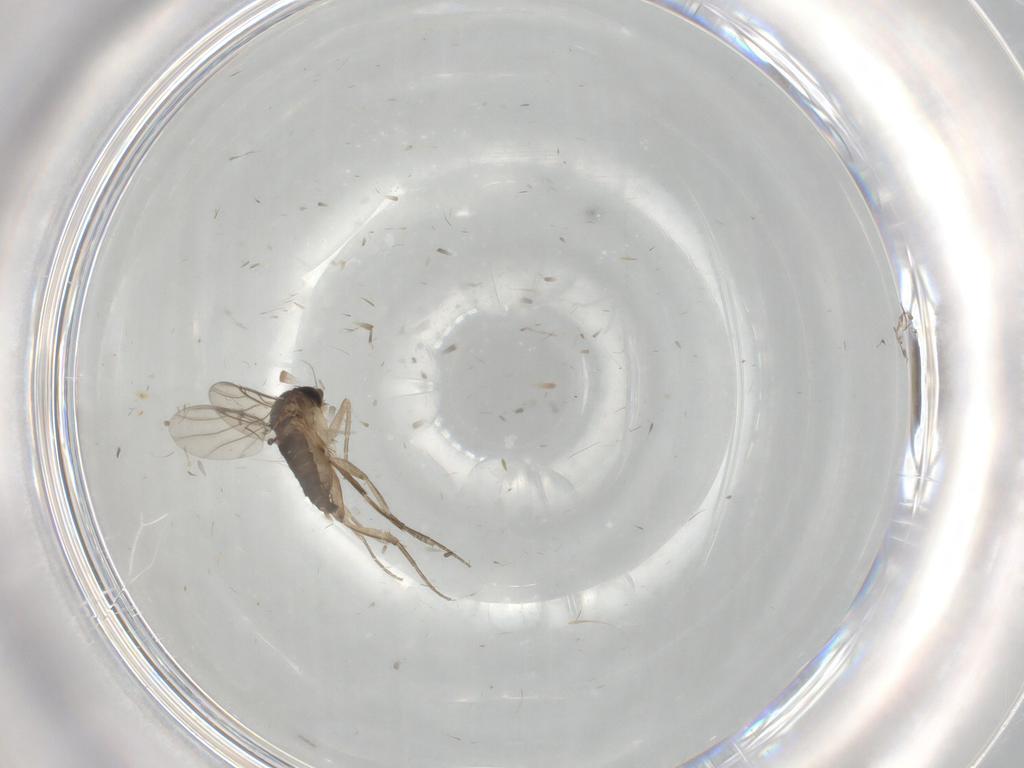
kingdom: Animalia
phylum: Arthropoda
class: Insecta
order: Diptera
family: Phoridae
